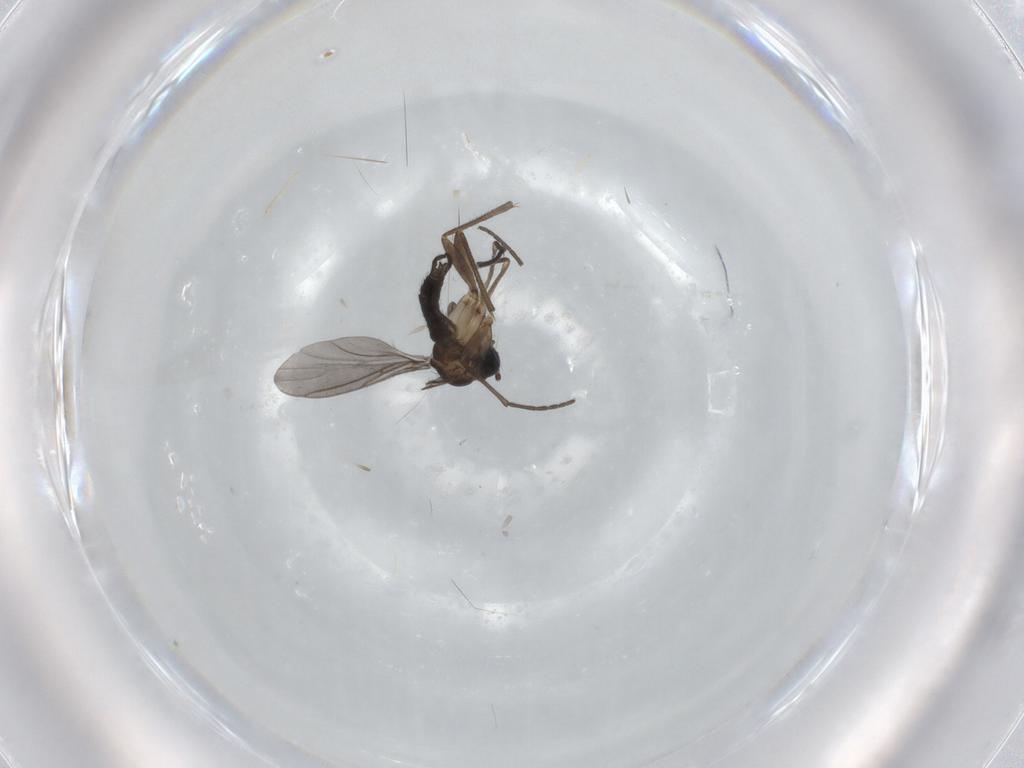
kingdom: Animalia
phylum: Arthropoda
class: Insecta
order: Diptera
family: Sciaridae
